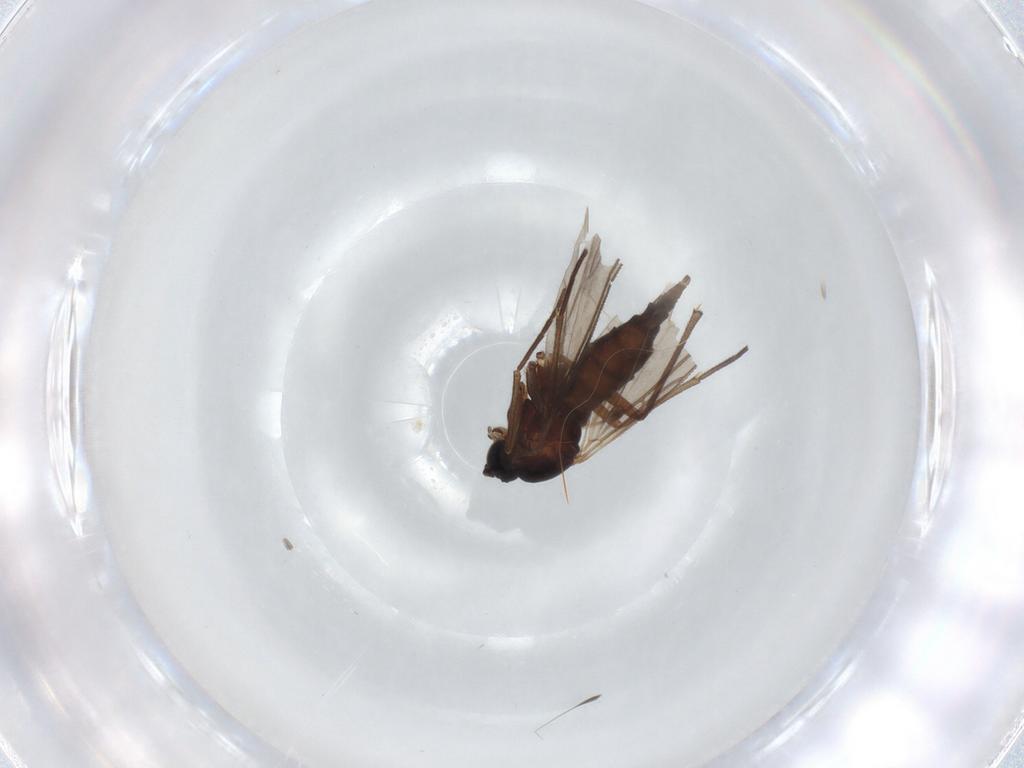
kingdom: Animalia
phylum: Arthropoda
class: Insecta
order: Diptera
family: Sciaridae
